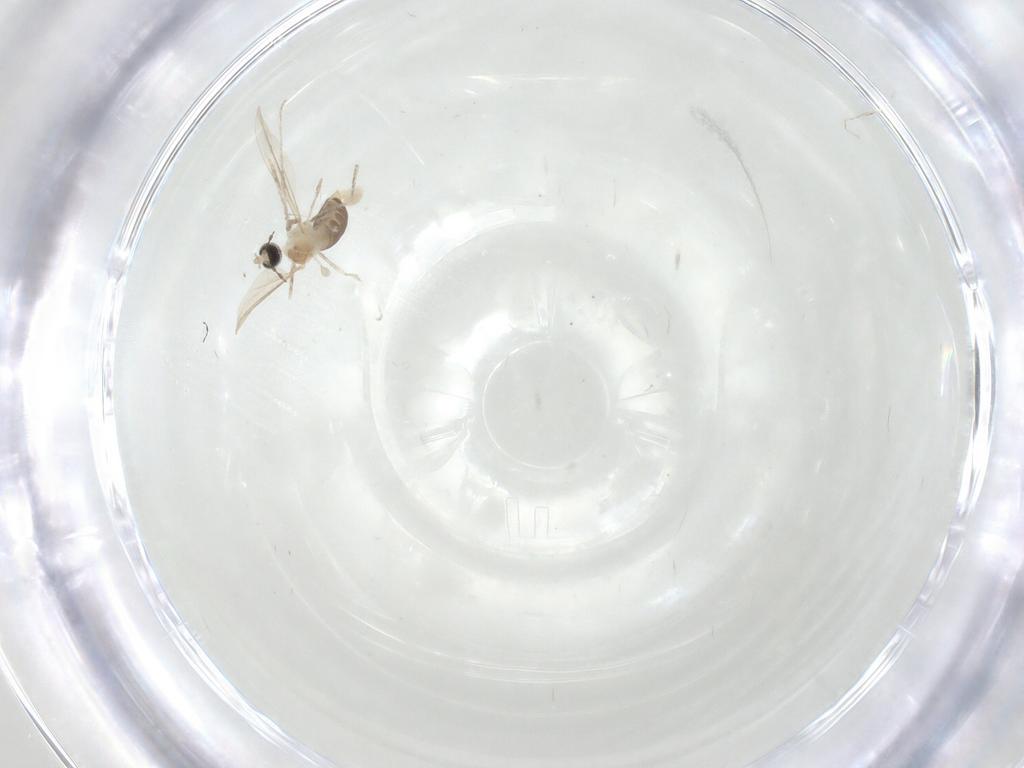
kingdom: Animalia
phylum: Arthropoda
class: Insecta
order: Diptera
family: Cecidomyiidae
